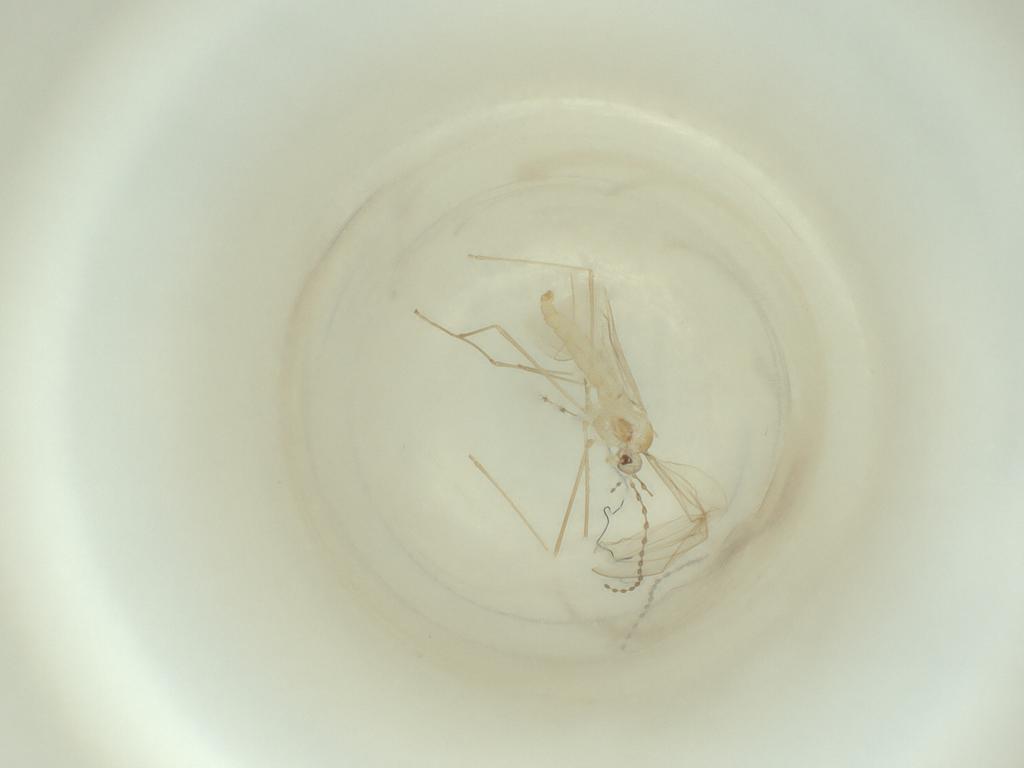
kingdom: Animalia
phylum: Arthropoda
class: Insecta
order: Diptera
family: Cecidomyiidae
